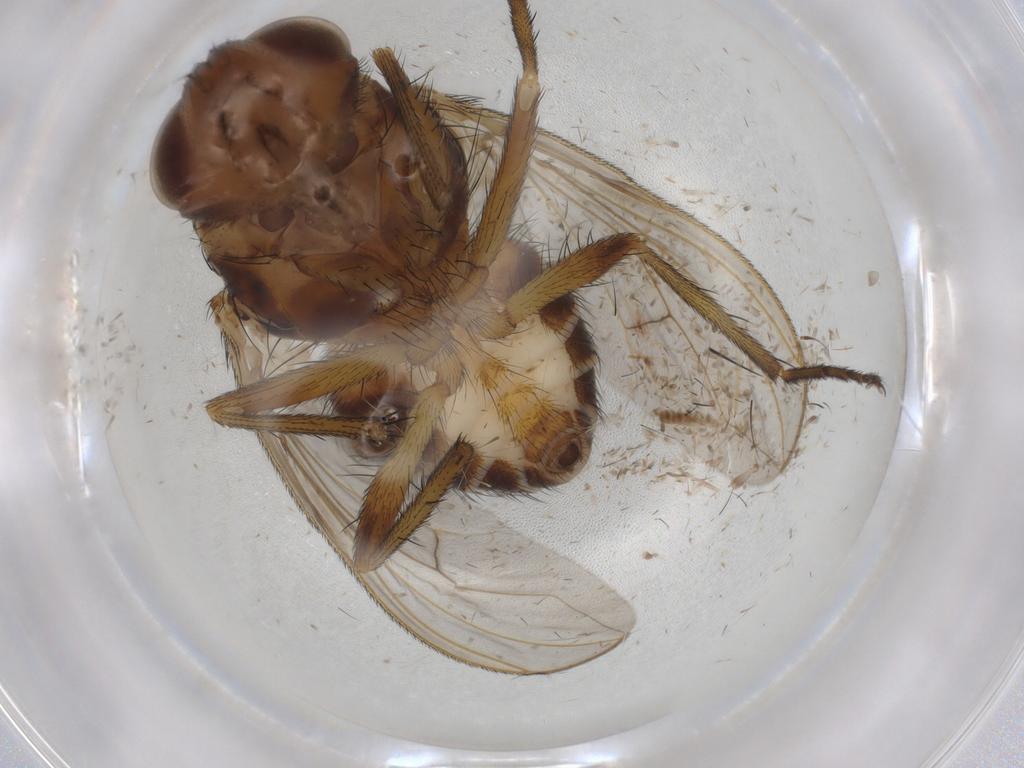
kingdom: Animalia
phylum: Arthropoda
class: Insecta
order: Diptera
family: Tachinidae
